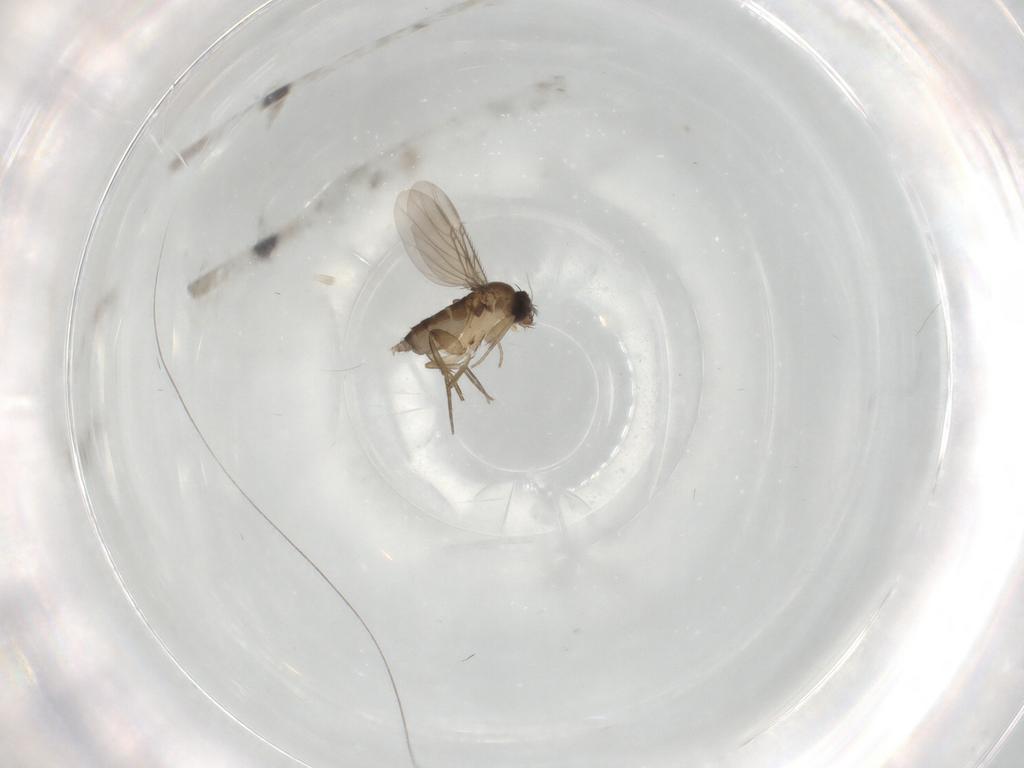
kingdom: Animalia
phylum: Arthropoda
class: Insecta
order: Diptera
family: Phoridae
